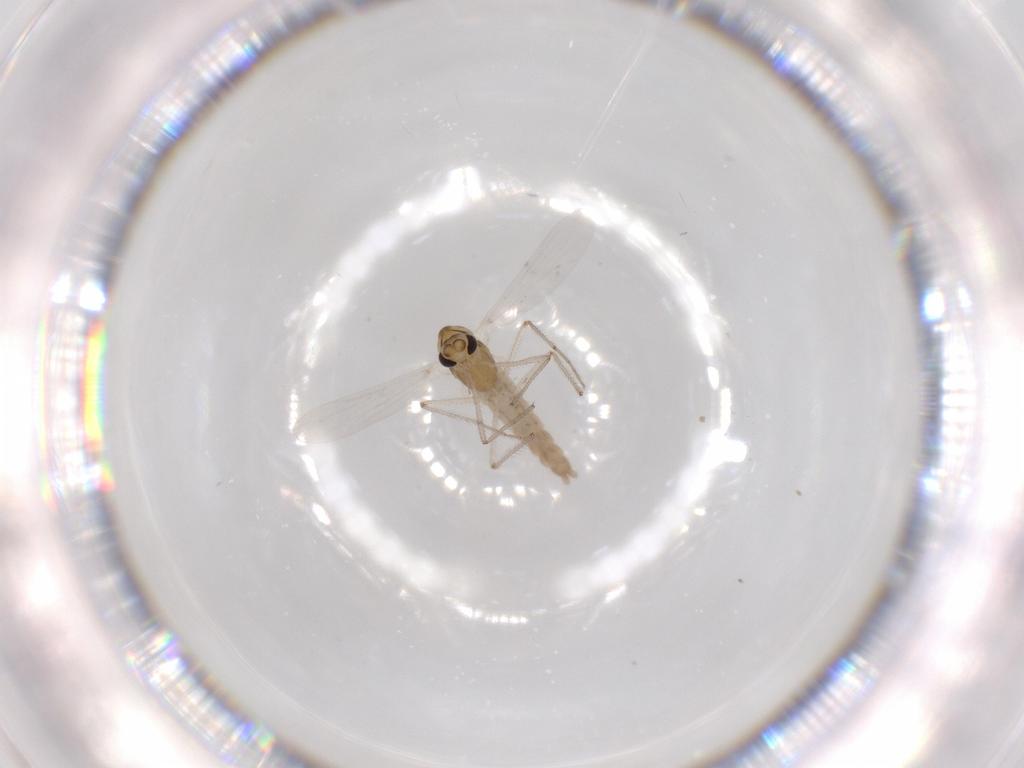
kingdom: Animalia
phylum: Arthropoda
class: Insecta
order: Diptera
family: Chironomidae
